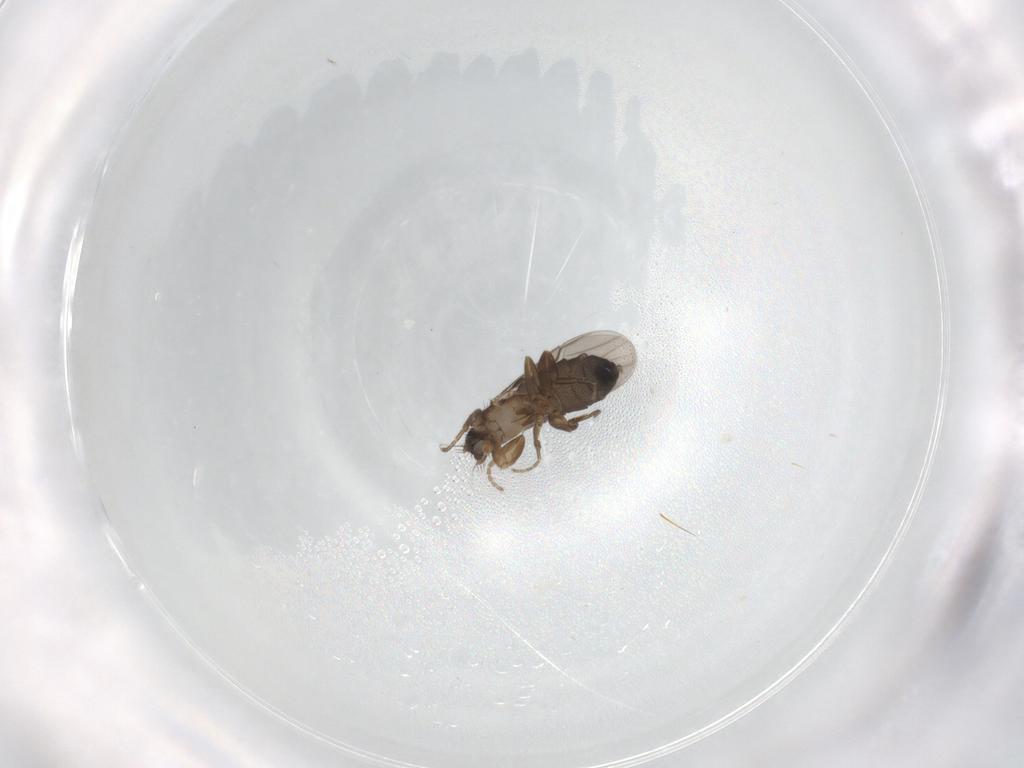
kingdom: Animalia
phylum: Arthropoda
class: Insecta
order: Diptera
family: Phoridae
